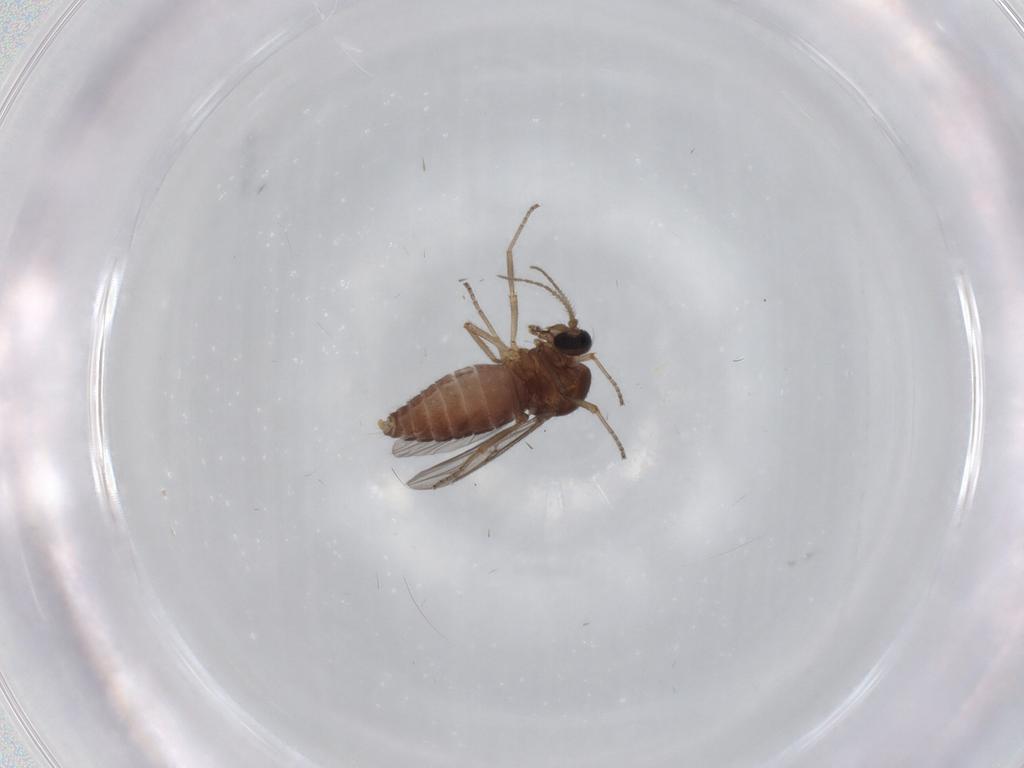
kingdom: Animalia
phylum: Arthropoda
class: Insecta
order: Diptera
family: Ceratopogonidae
